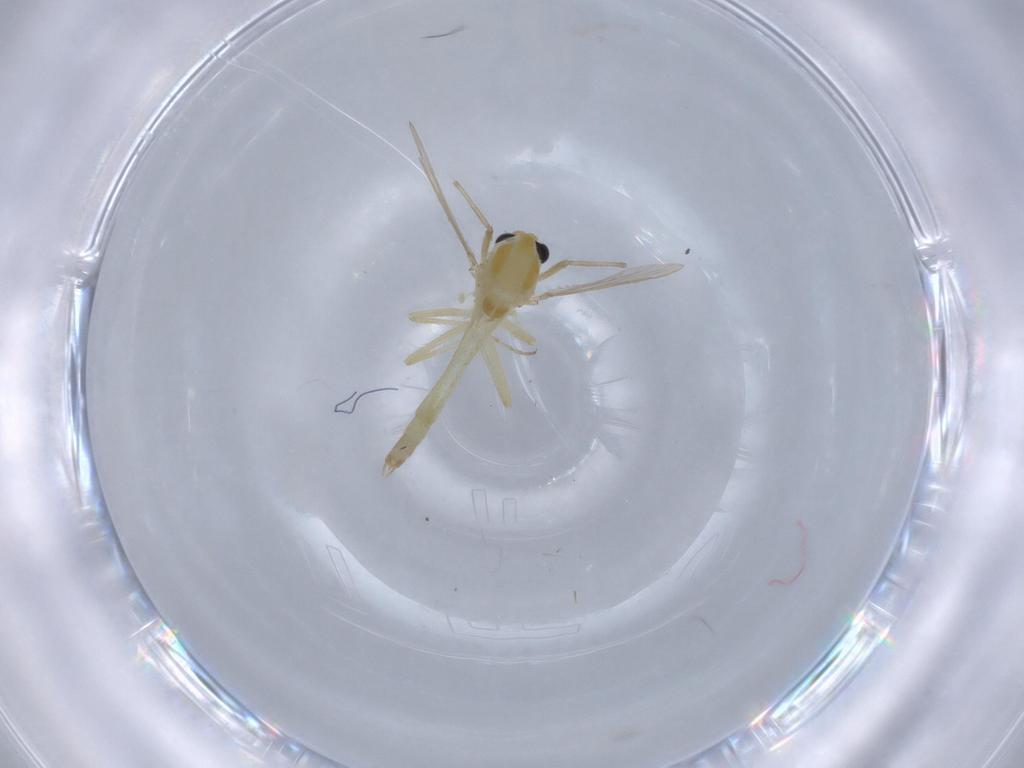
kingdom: Animalia
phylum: Arthropoda
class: Insecta
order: Diptera
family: Chironomidae
